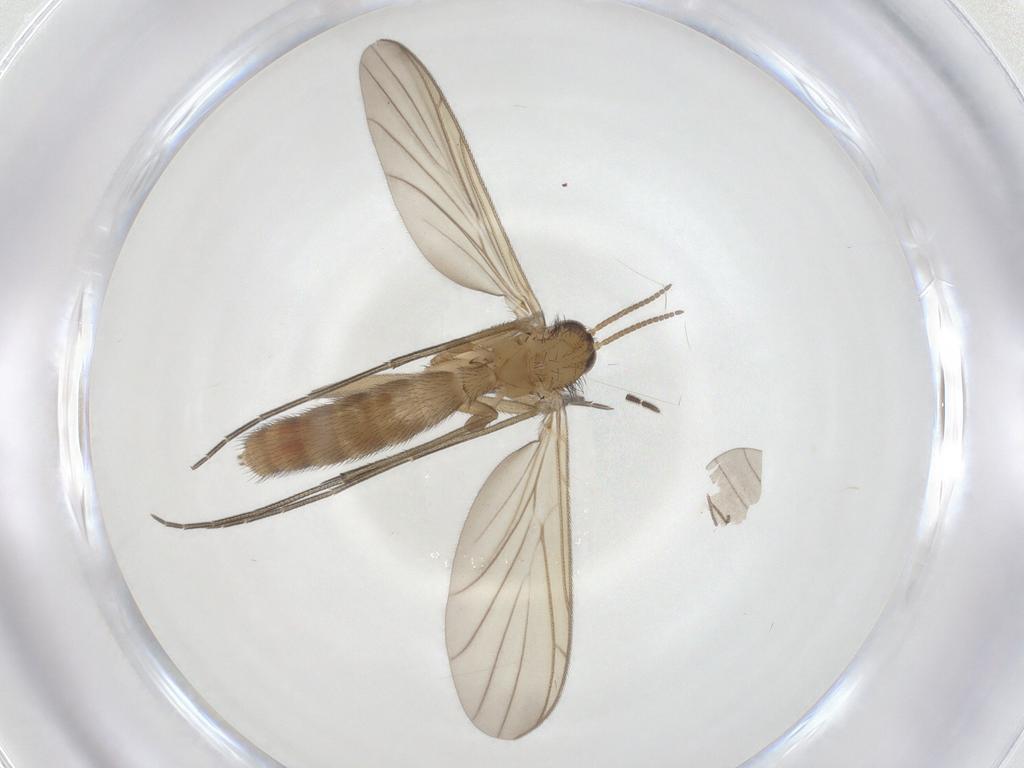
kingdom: Animalia
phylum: Arthropoda
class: Insecta
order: Diptera
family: Keroplatidae
